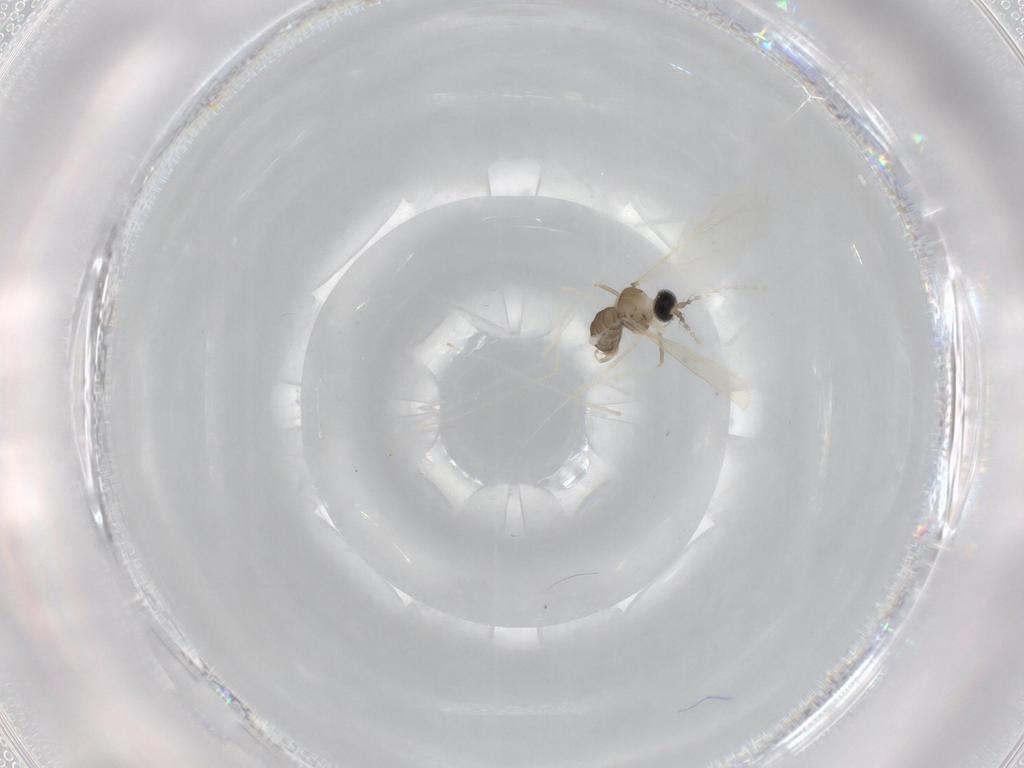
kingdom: Animalia
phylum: Arthropoda
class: Insecta
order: Diptera
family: Cecidomyiidae
